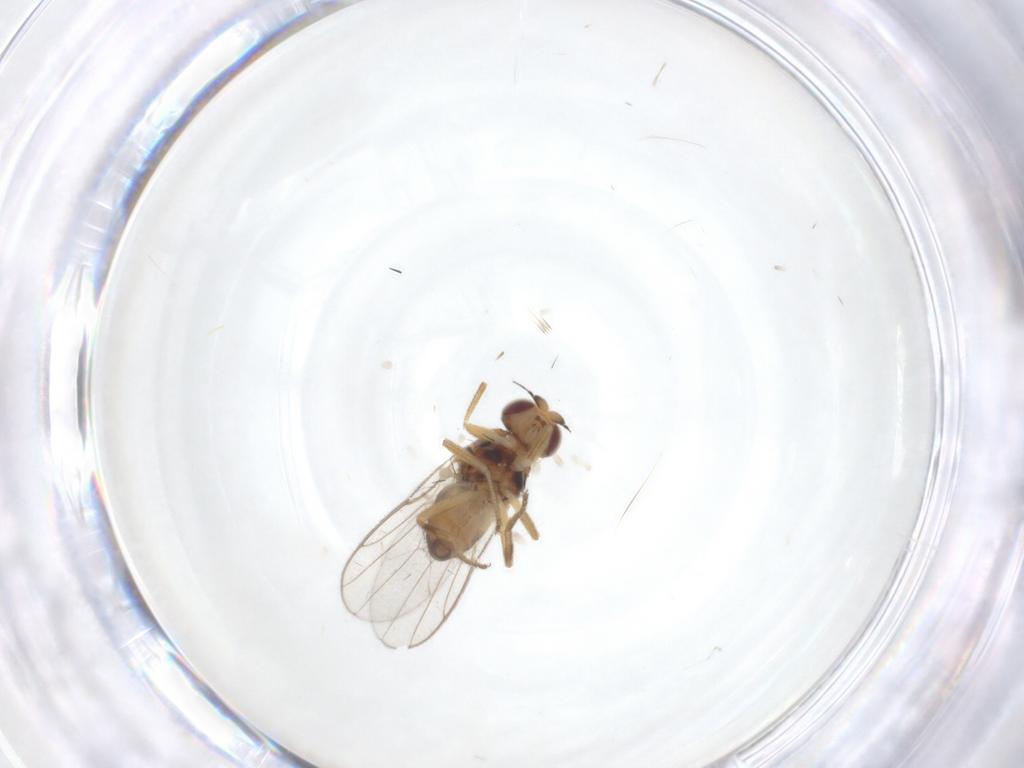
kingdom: Animalia
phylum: Arthropoda
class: Insecta
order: Diptera
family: Chloropidae
